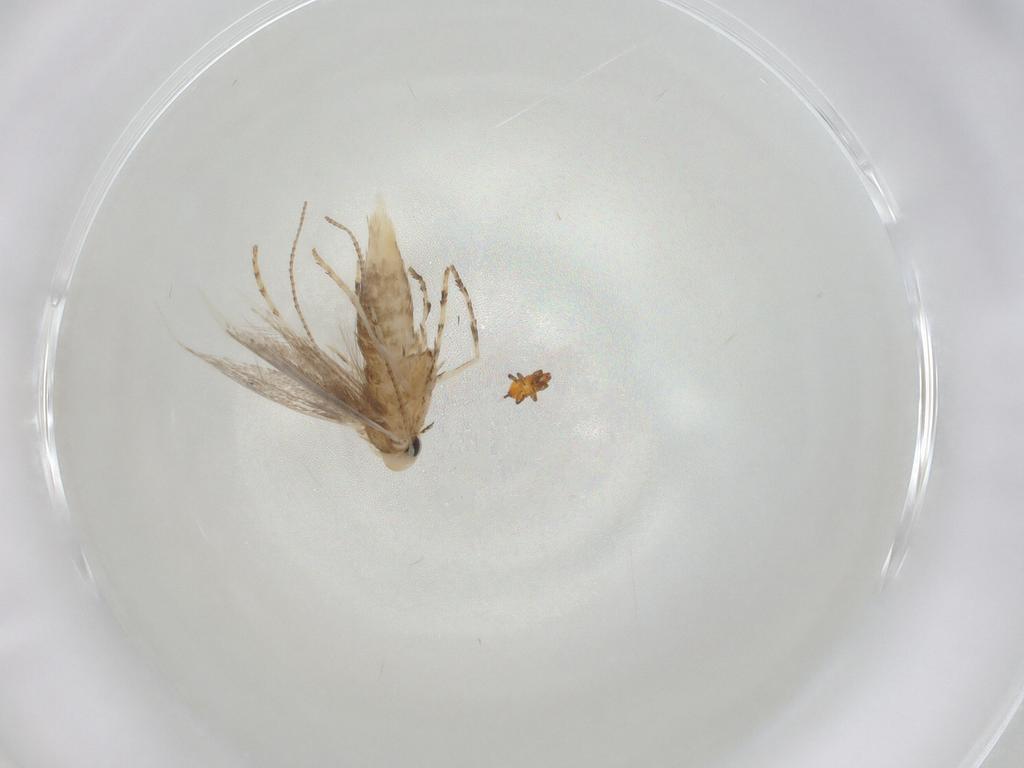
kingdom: Animalia
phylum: Arthropoda
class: Insecta
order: Thysanoptera
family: Phlaeothripidae
